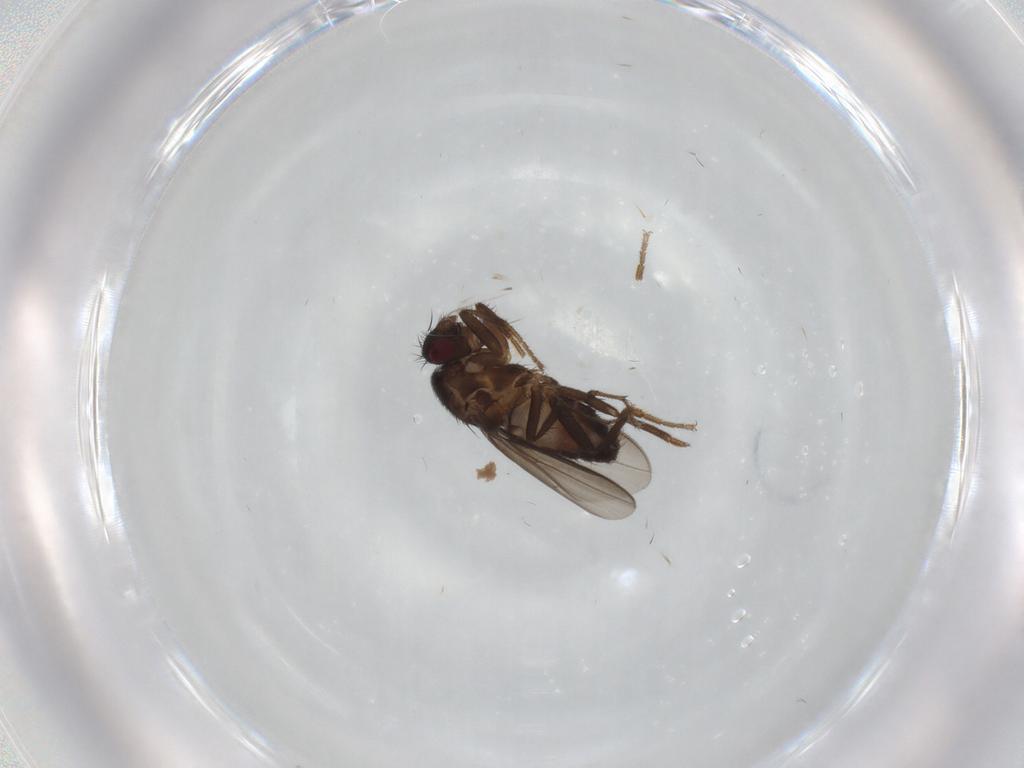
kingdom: Animalia
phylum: Arthropoda
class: Insecta
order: Diptera
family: Sphaeroceridae
